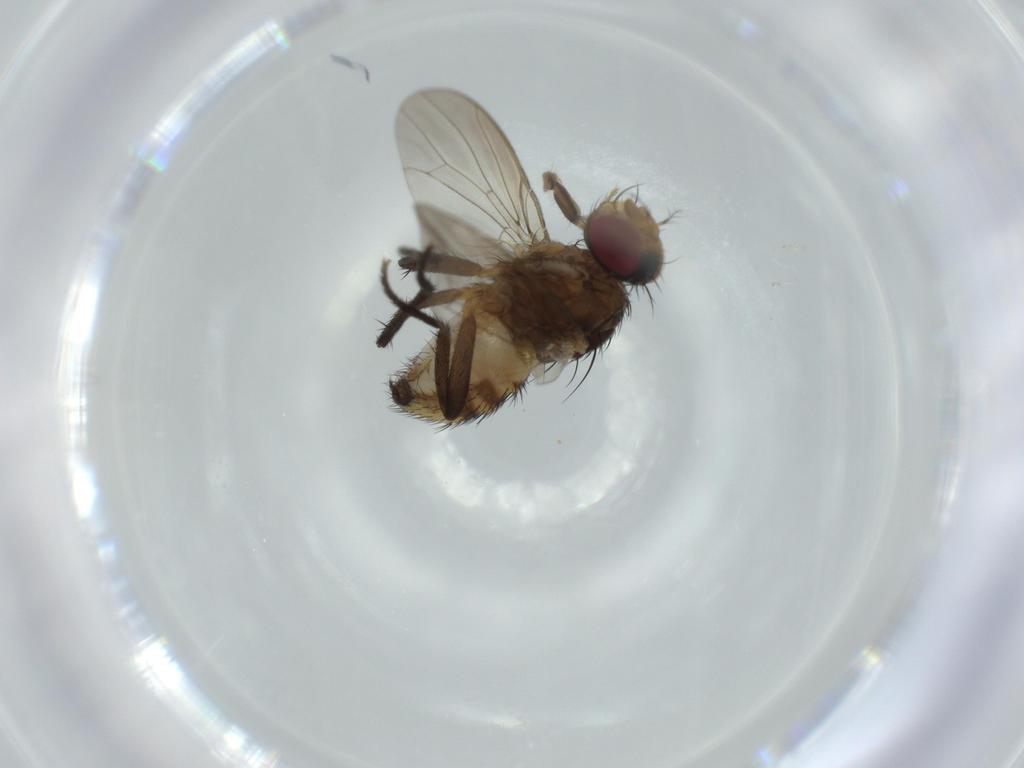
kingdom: Animalia
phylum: Arthropoda
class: Insecta
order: Diptera
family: Anthomyiidae
